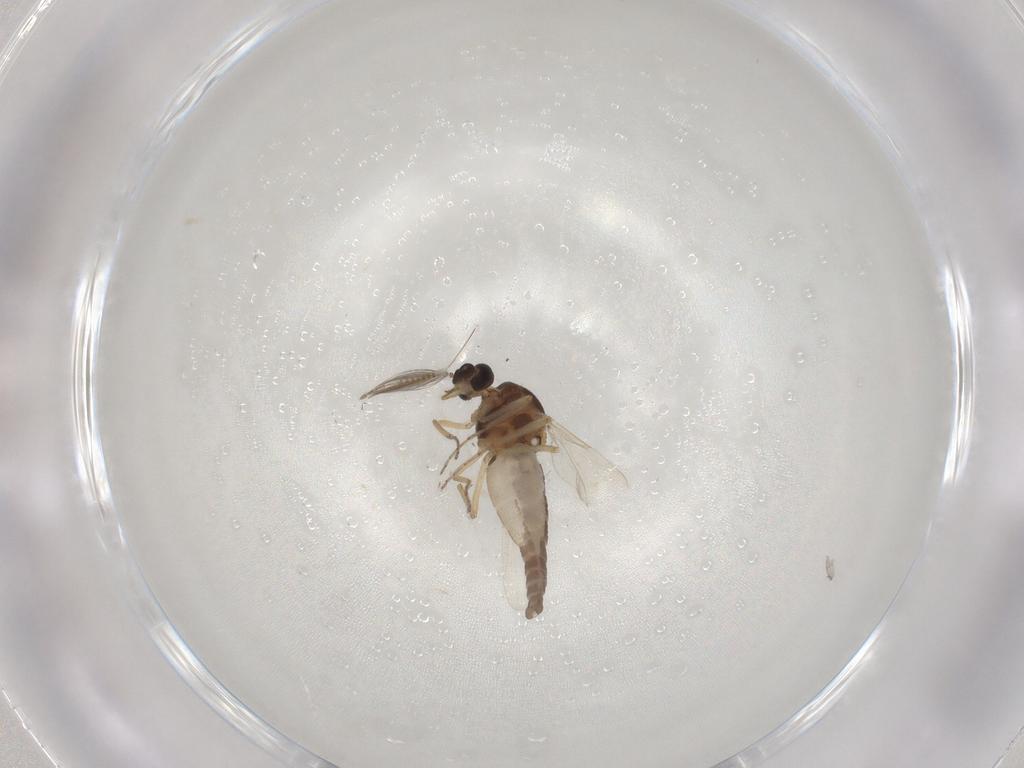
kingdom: Animalia
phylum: Arthropoda
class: Insecta
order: Diptera
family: Ceratopogonidae
